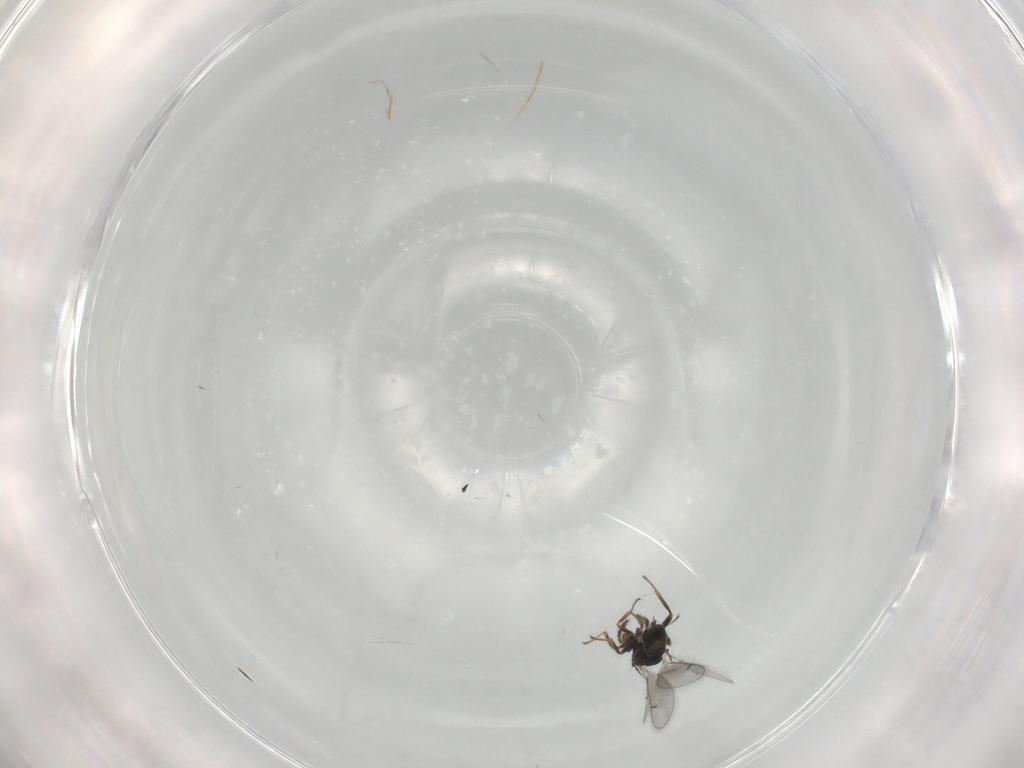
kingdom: Animalia
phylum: Arthropoda
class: Insecta
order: Hymenoptera
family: Eulophidae
